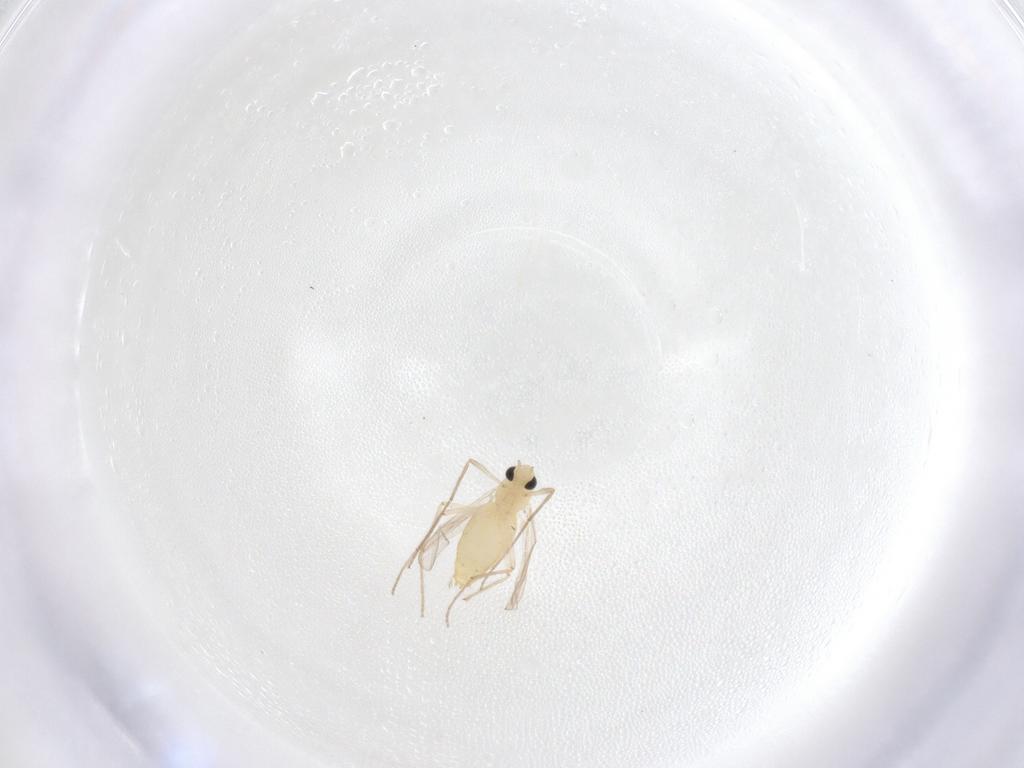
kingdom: Animalia
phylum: Arthropoda
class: Insecta
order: Diptera
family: Chironomidae
